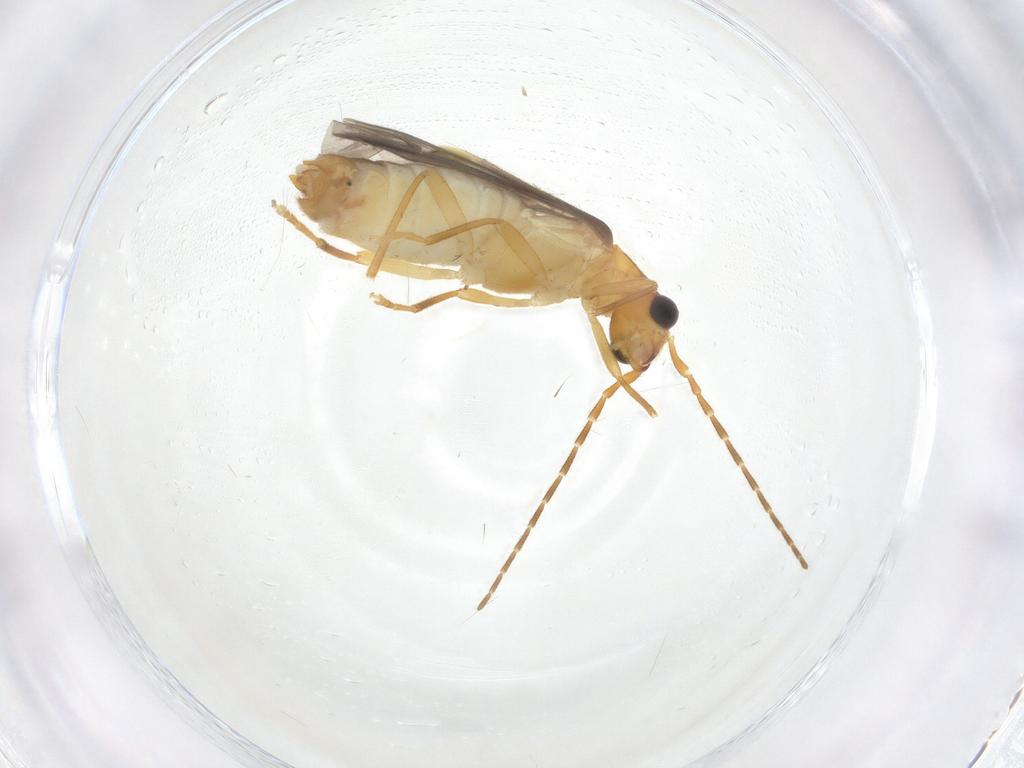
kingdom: Animalia
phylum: Arthropoda
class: Insecta
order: Coleoptera
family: Cantharidae
